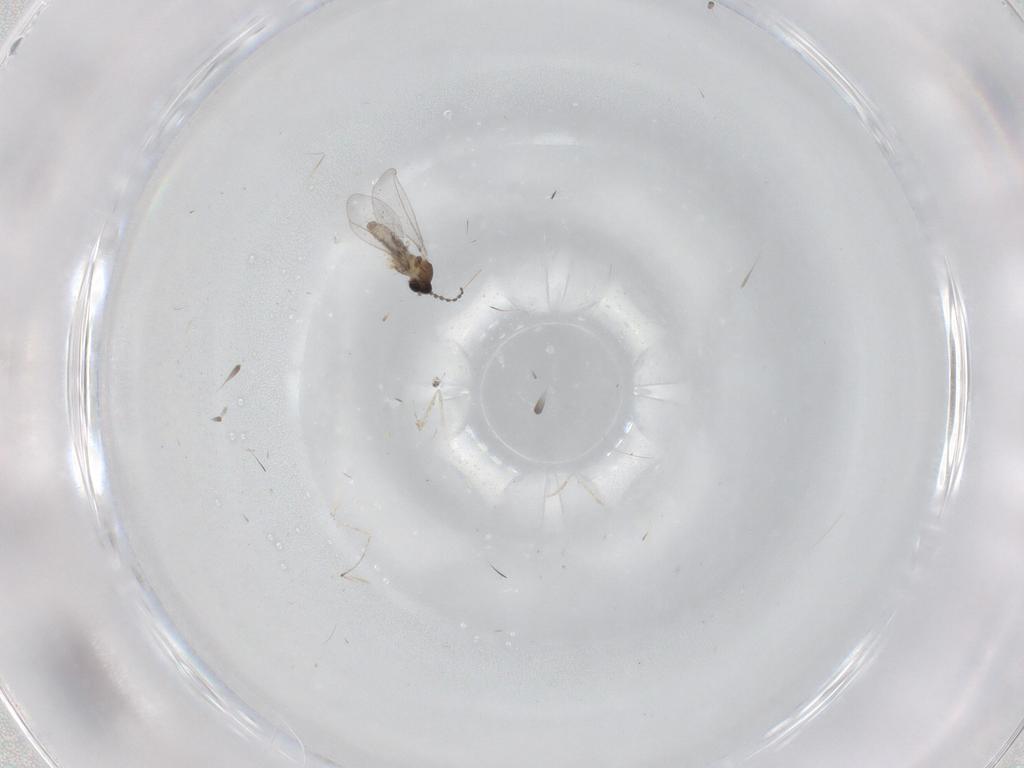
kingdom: Animalia
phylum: Arthropoda
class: Insecta
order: Diptera
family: Cecidomyiidae
